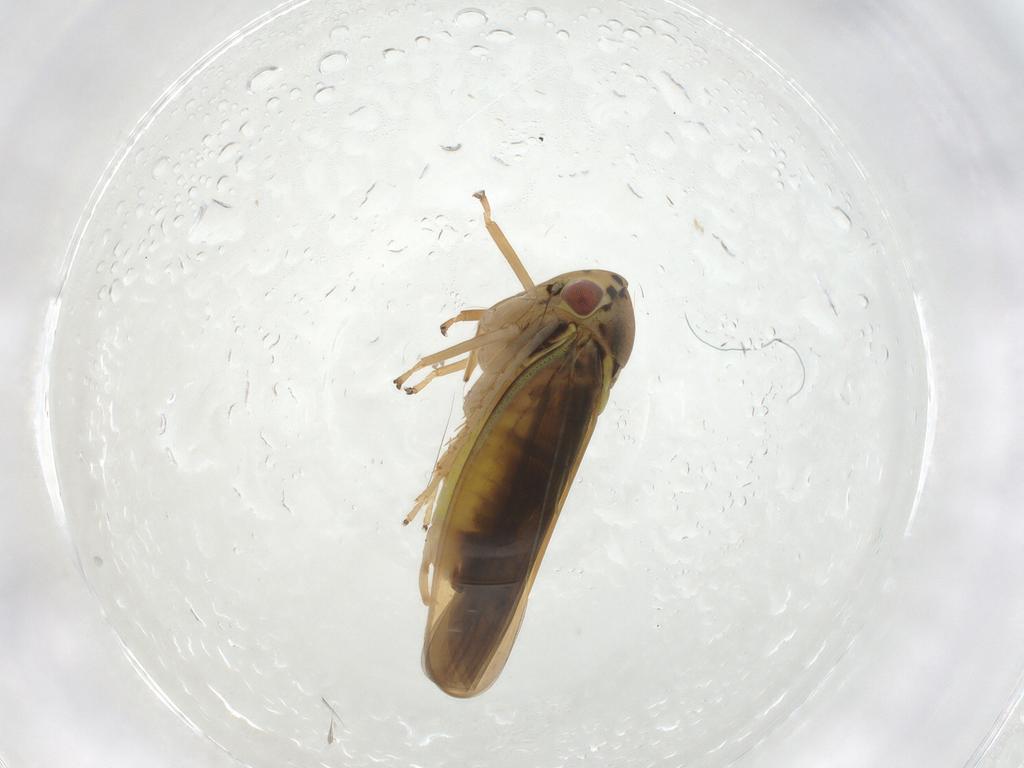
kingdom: Animalia
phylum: Arthropoda
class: Insecta
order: Hemiptera
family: Cicadellidae
